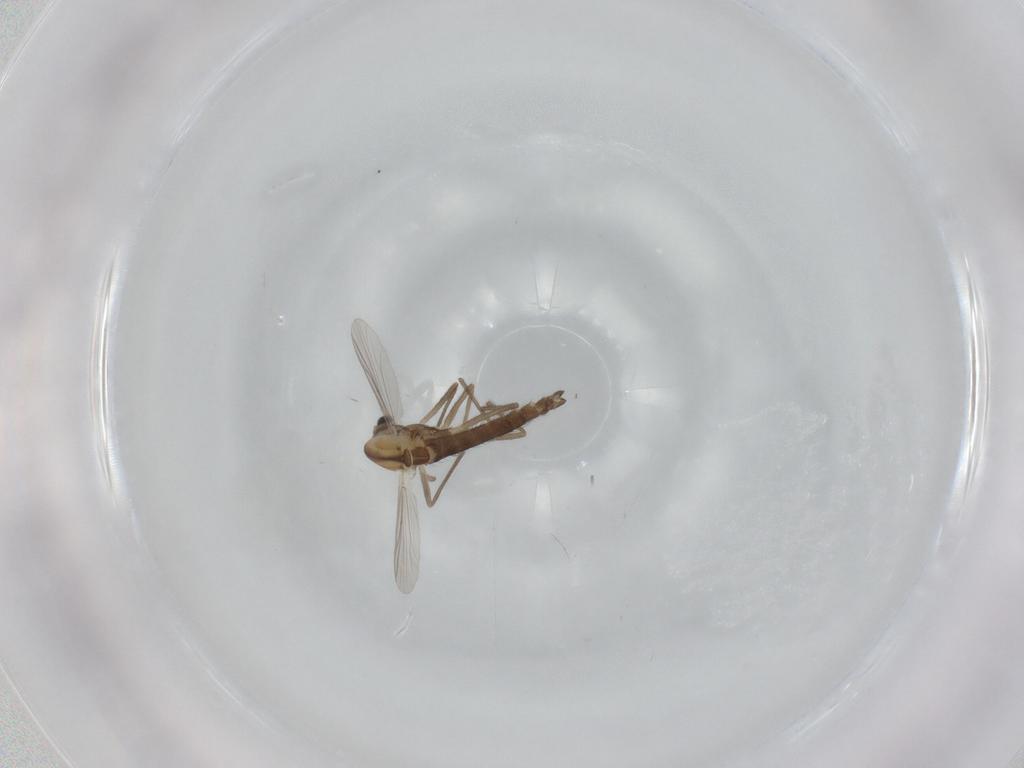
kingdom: Animalia
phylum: Arthropoda
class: Insecta
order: Diptera
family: Chironomidae
